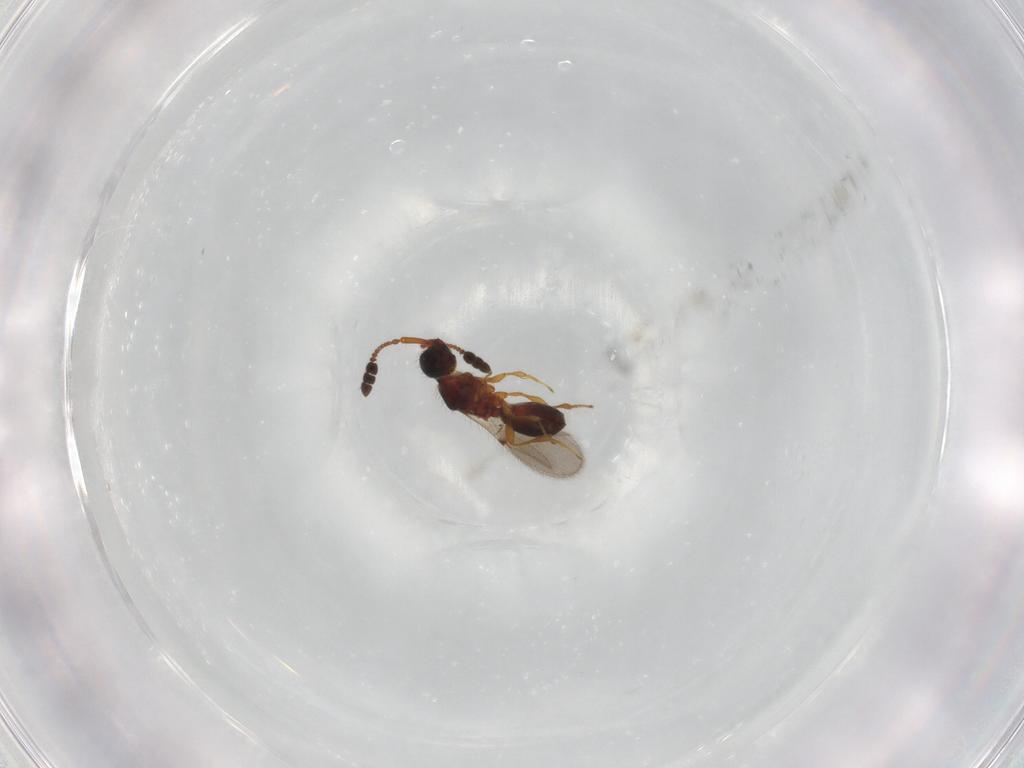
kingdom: Animalia
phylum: Arthropoda
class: Insecta
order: Hymenoptera
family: Diapriidae
